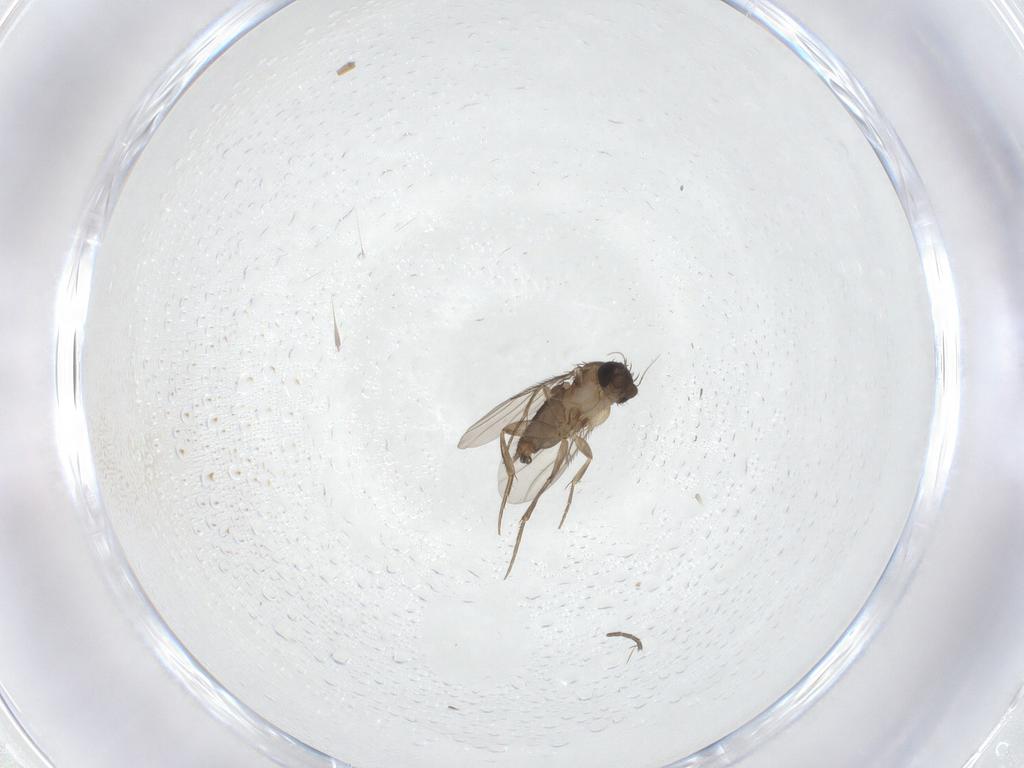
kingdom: Animalia
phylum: Arthropoda
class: Insecta
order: Diptera
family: Phoridae
